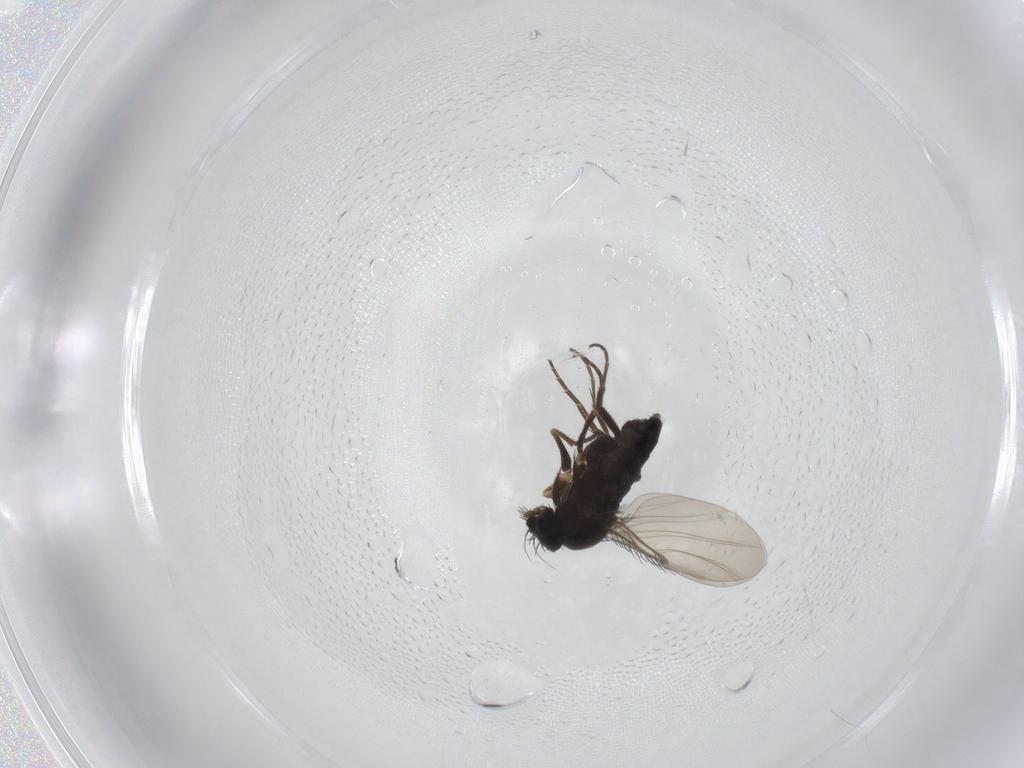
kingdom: Animalia
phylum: Arthropoda
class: Insecta
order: Diptera
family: Phoridae
